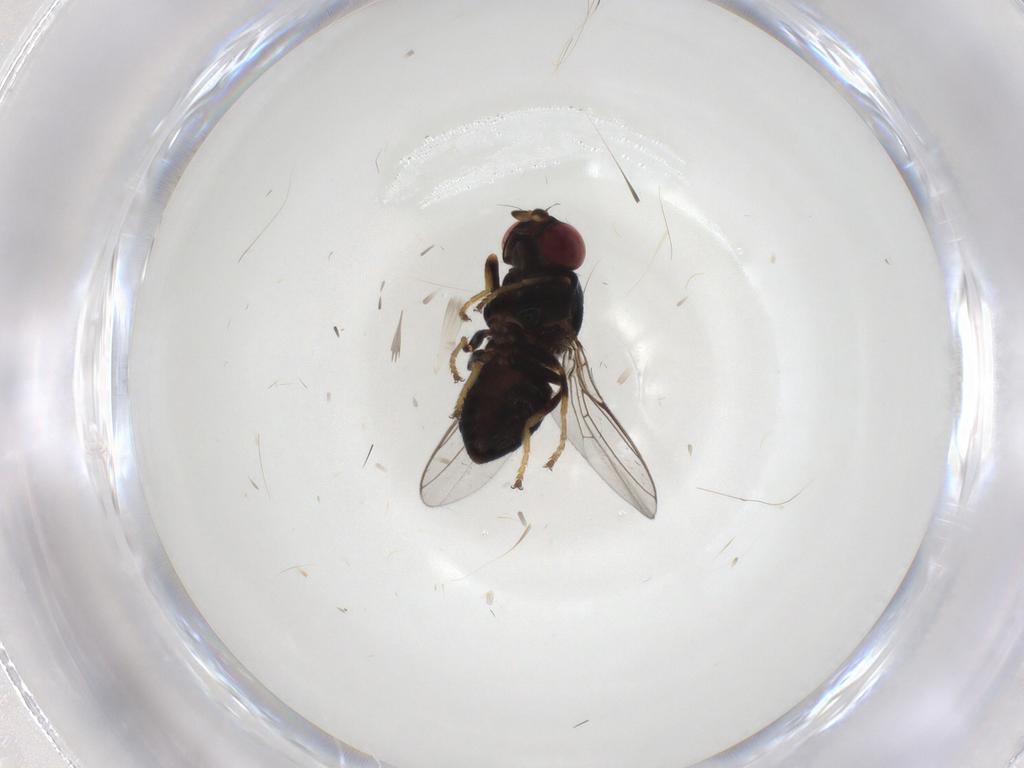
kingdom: Animalia
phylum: Arthropoda
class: Insecta
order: Diptera
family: Chloropidae
